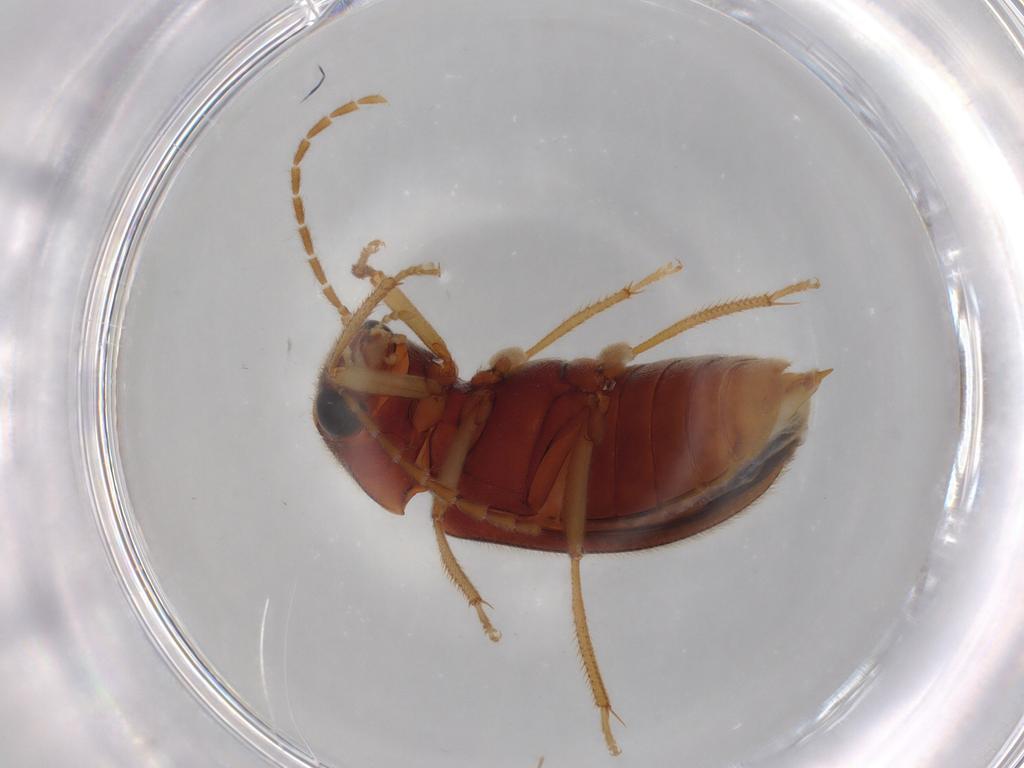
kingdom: Animalia
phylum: Arthropoda
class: Insecta
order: Coleoptera
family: Ptilodactylidae
